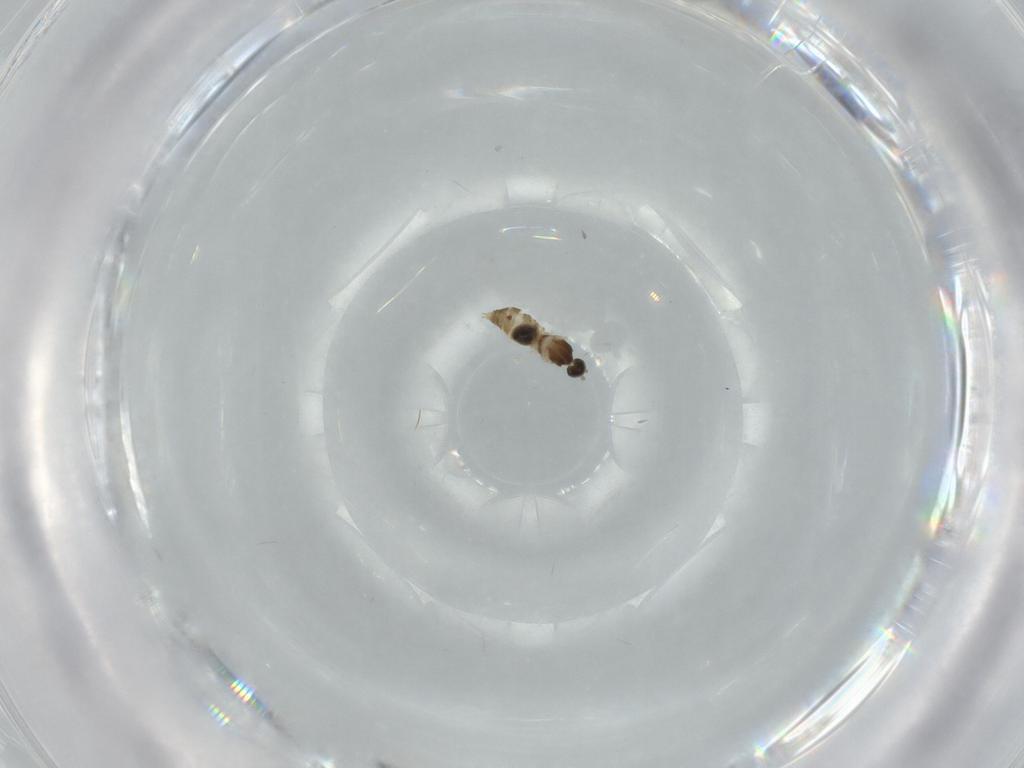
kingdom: Animalia
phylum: Arthropoda
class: Insecta
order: Diptera
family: Cecidomyiidae
